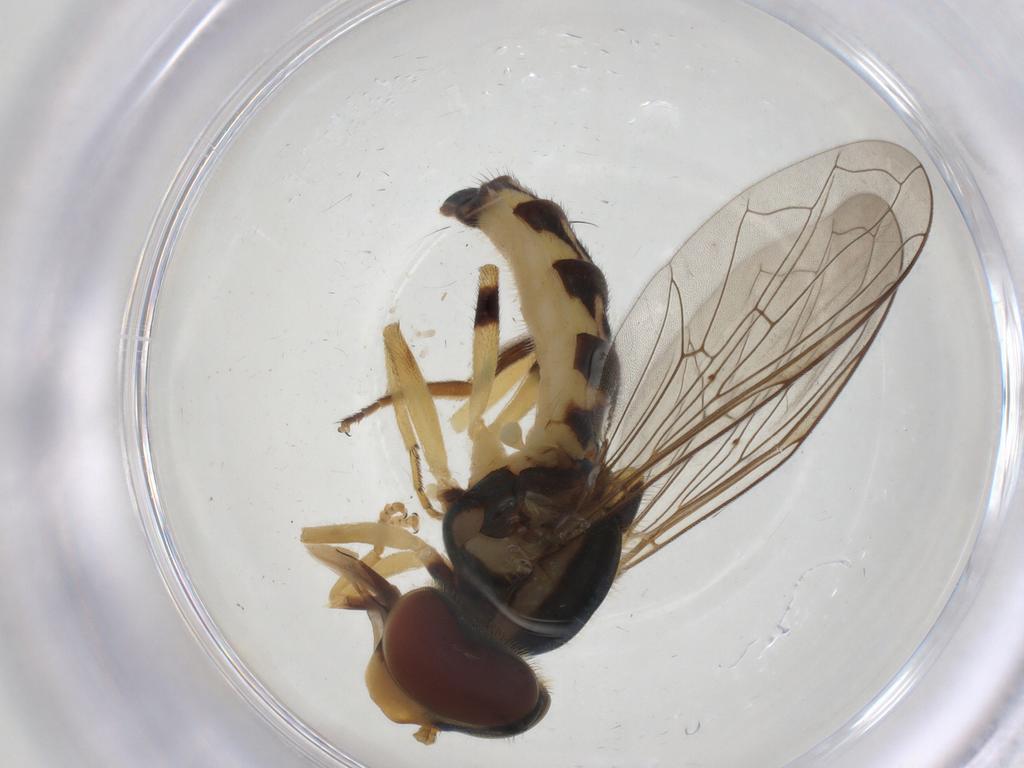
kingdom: Animalia
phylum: Arthropoda
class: Insecta
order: Diptera
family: Syrphidae
